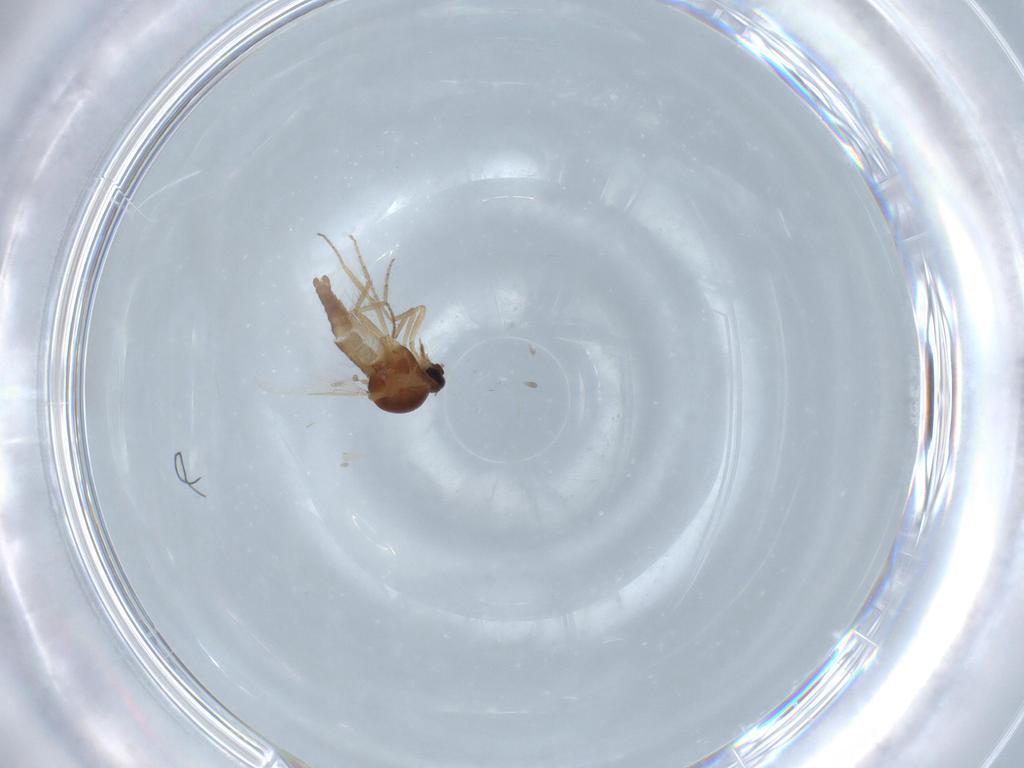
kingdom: Animalia
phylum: Arthropoda
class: Insecta
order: Diptera
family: Ceratopogonidae
